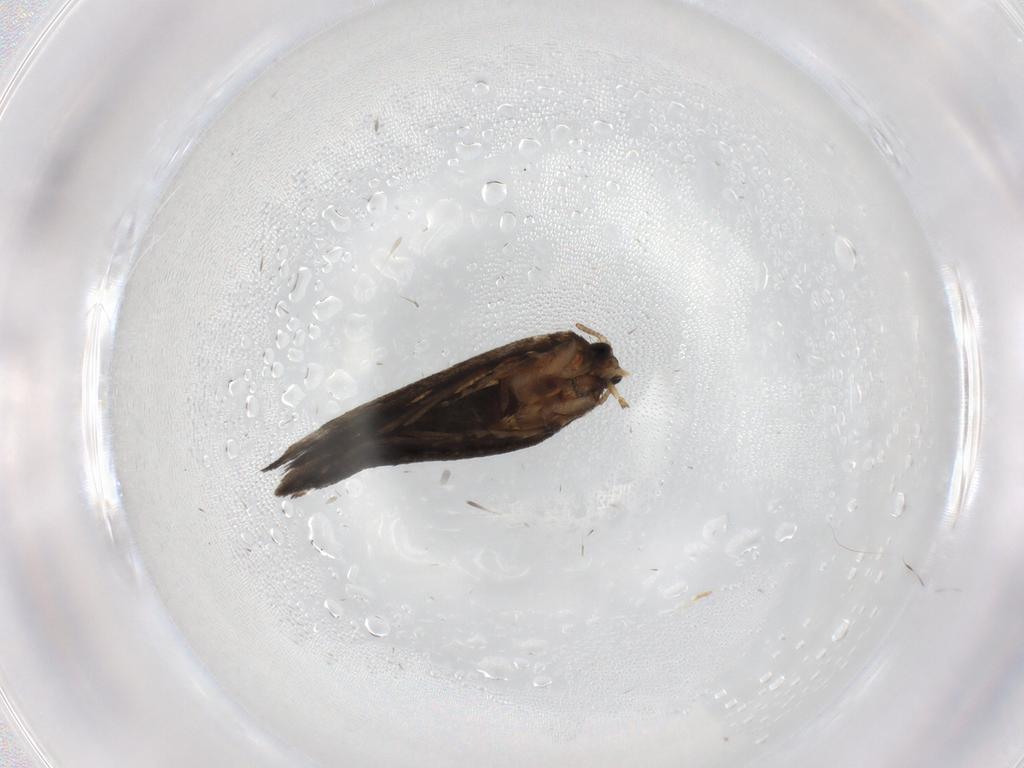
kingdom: Animalia
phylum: Arthropoda
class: Insecta
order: Lepidoptera
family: Crambidae
